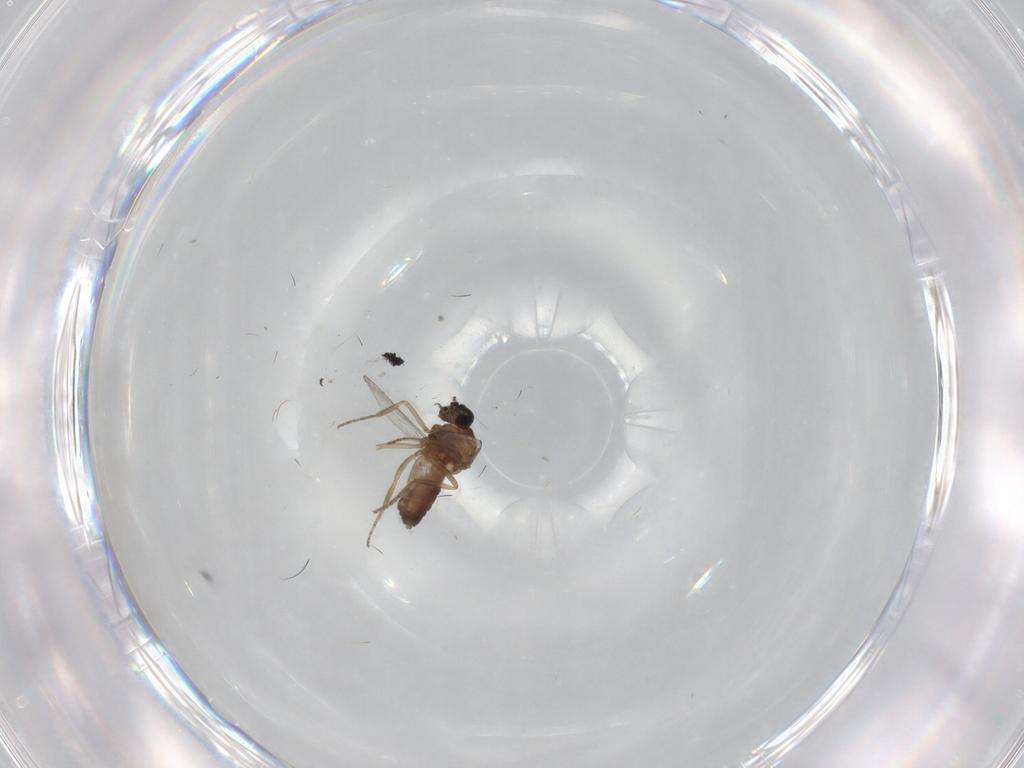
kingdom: Animalia
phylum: Arthropoda
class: Insecta
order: Diptera
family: Ceratopogonidae
